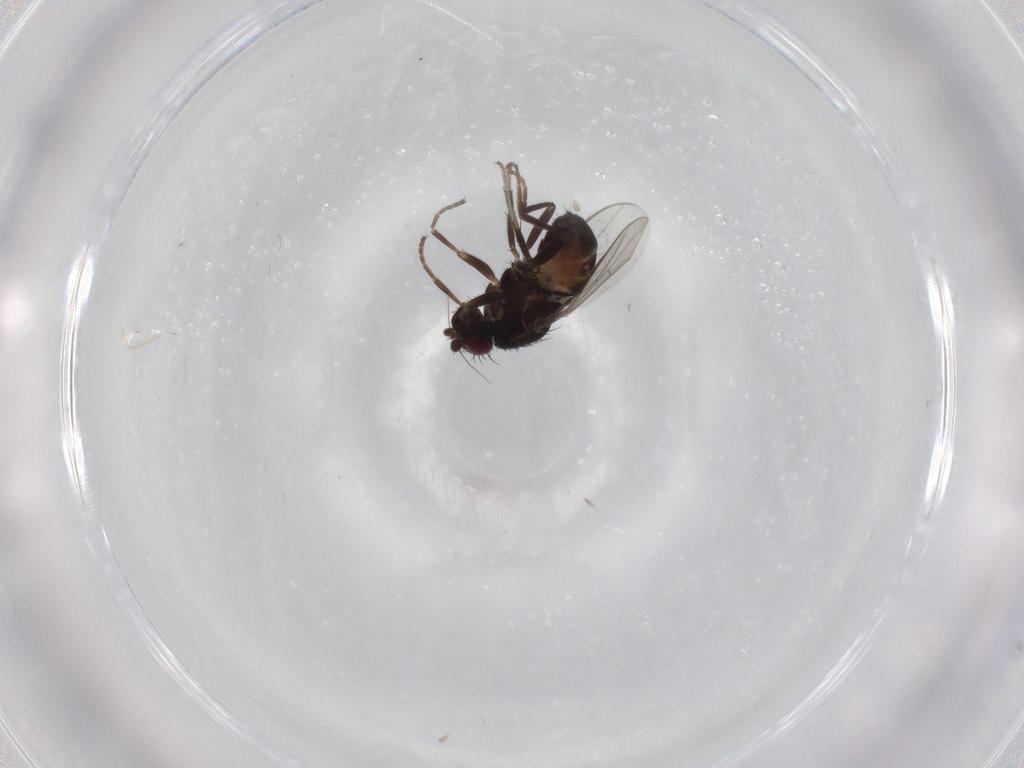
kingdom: Animalia
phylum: Arthropoda
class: Insecta
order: Diptera
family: Sphaeroceridae
